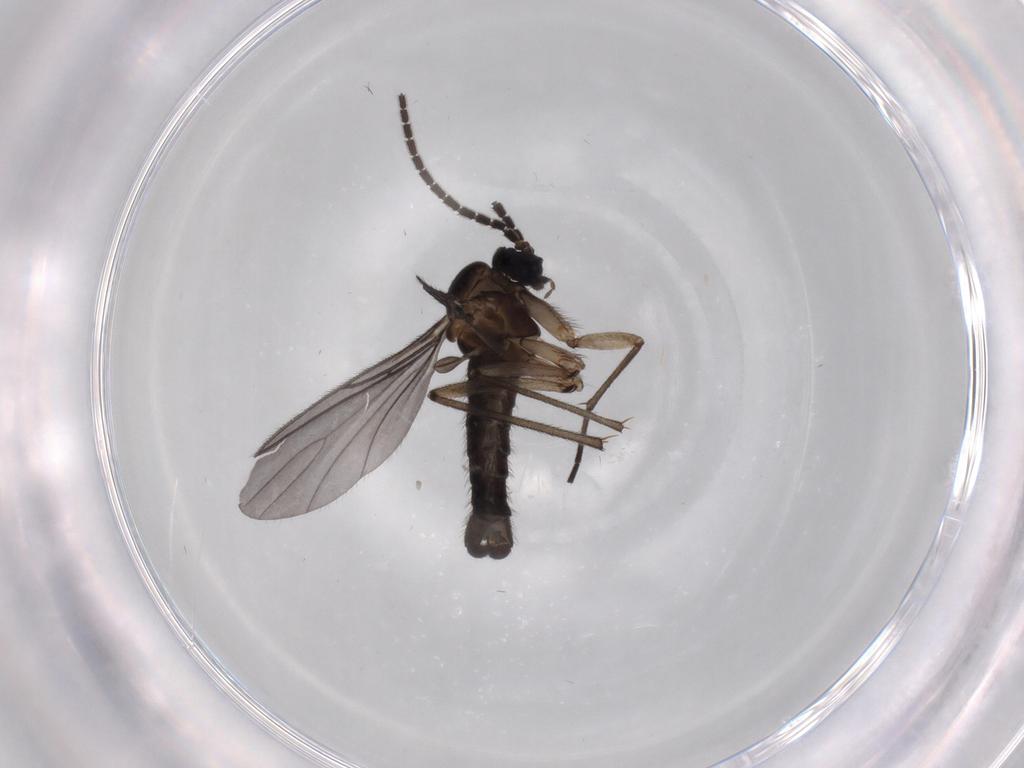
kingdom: Animalia
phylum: Arthropoda
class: Insecta
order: Diptera
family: Sciaridae
